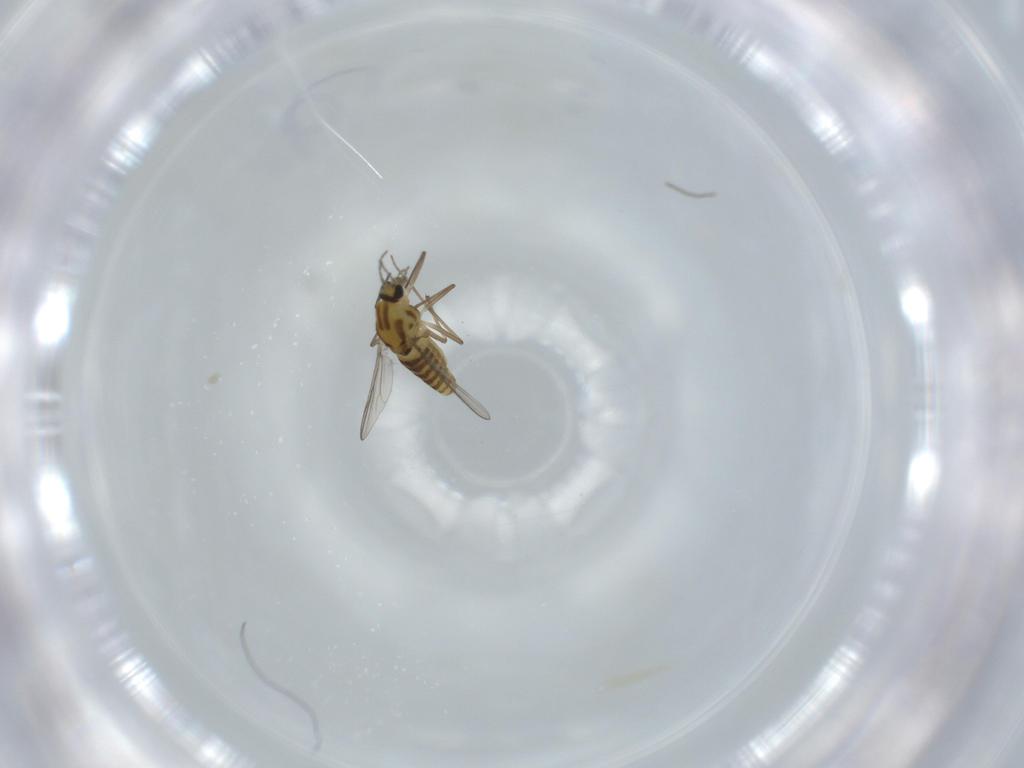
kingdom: Animalia
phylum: Arthropoda
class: Insecta
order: Diptera
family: Chironomidae
